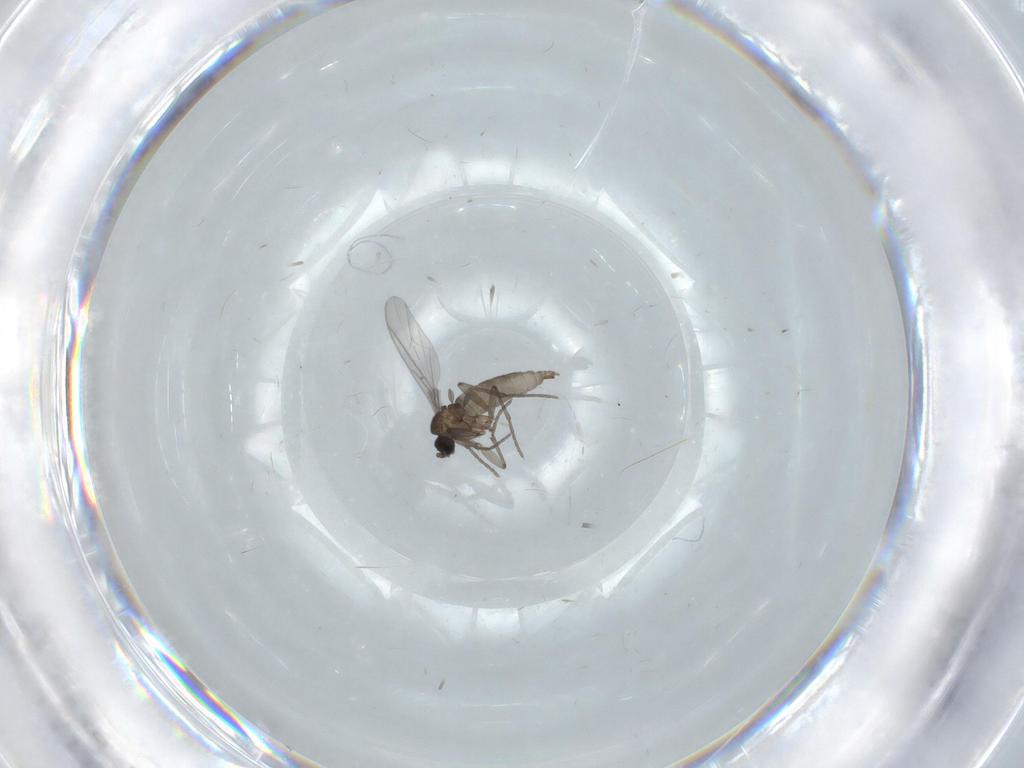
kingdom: Animalia
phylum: Arthropoda
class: Insecta
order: Diptera
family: Sciaridae
